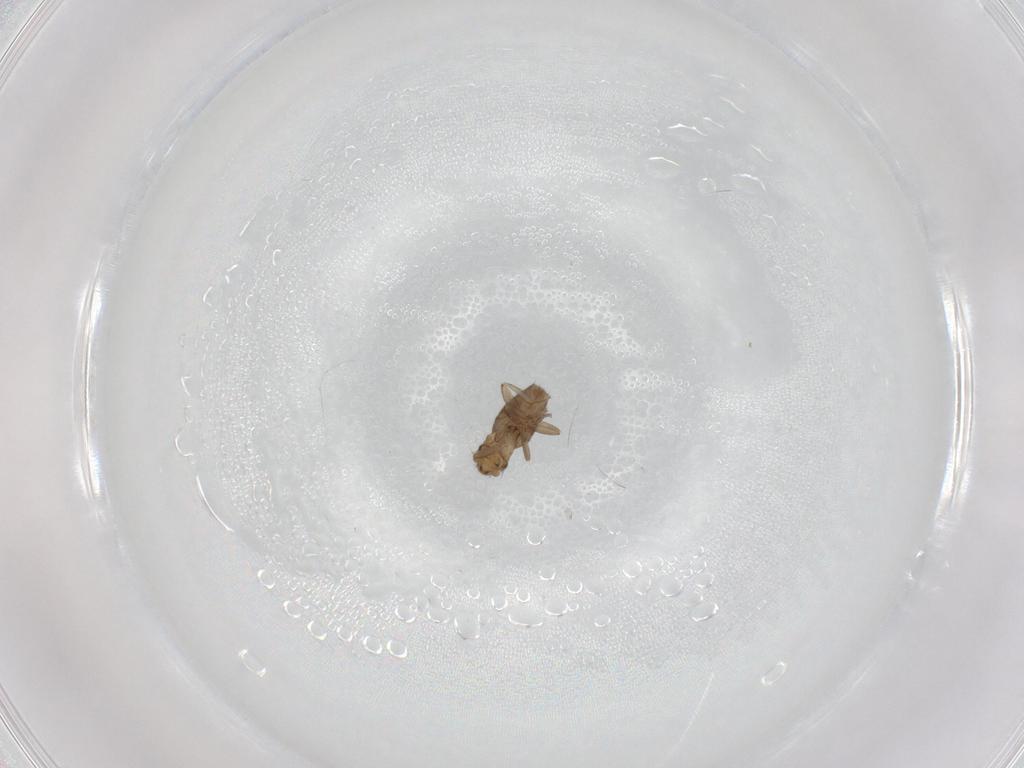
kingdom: Animalia
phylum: Arthropoda
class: Insecta
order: Diptera
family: Phoridae
